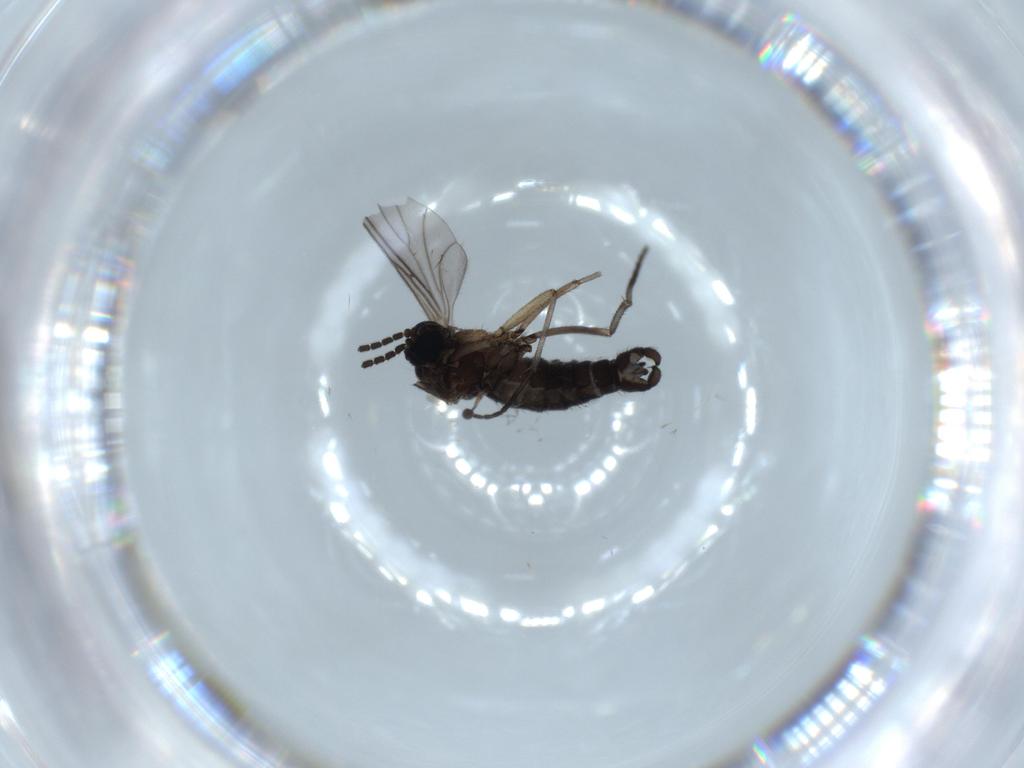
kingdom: Animalia
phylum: Arthropoda
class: Insecta
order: Diptera
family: Sciaridae
